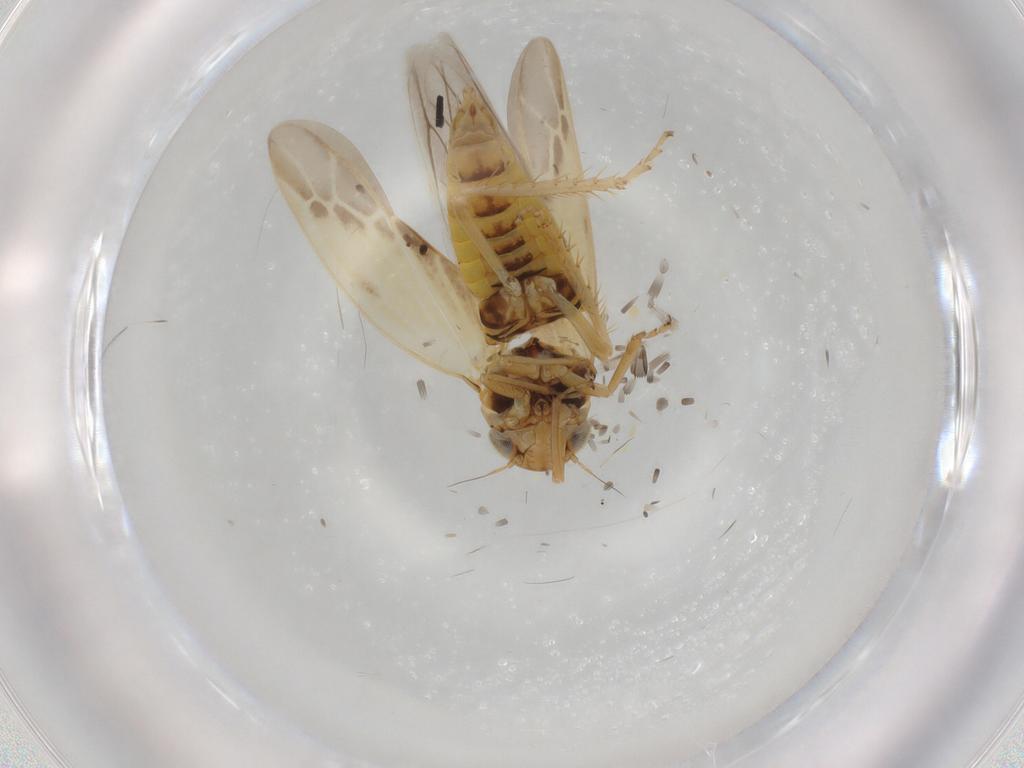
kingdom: Animalia
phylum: Arthropoda
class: Insecta
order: Hemiptera
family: Cicadellidae
